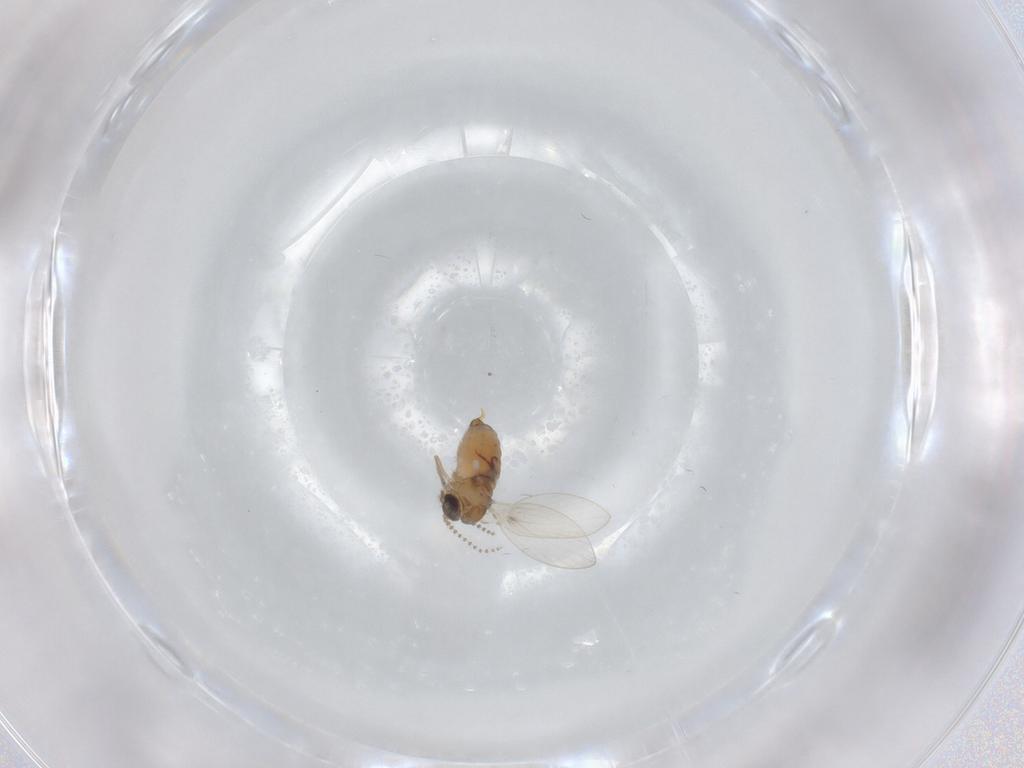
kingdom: Animalia
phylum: Arthropoda
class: Insecta
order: Diptera
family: Psychodidae
